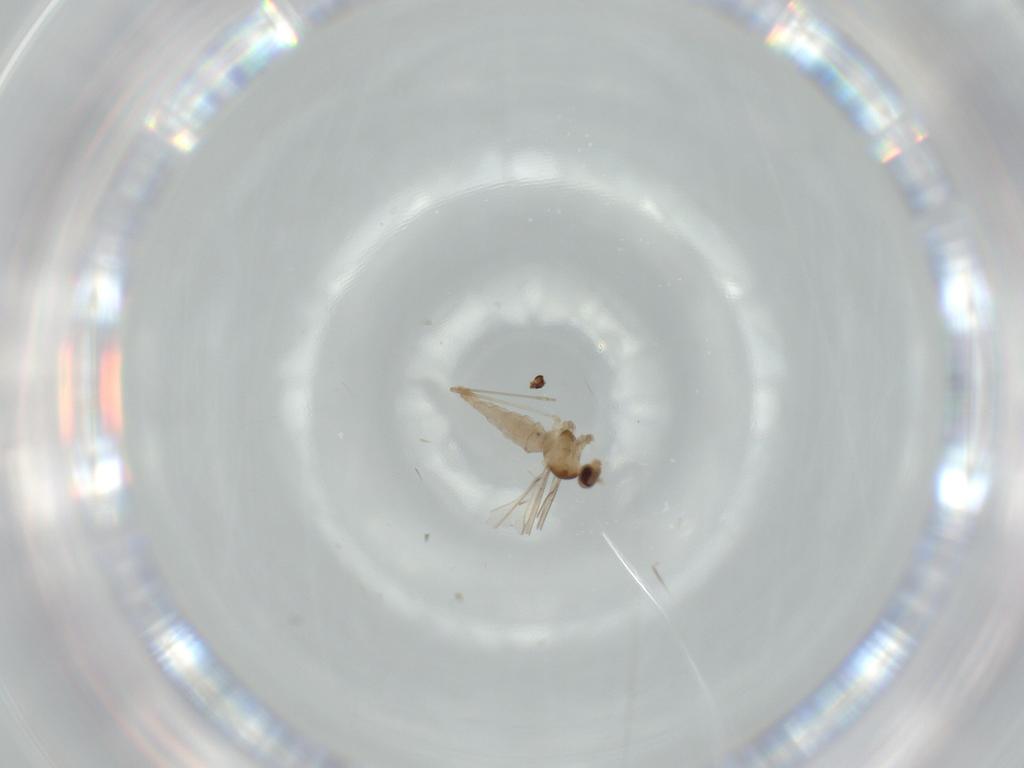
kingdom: Animalia
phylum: Arthropoda
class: Insecta
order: Diptera
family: Cecidomyiidae
